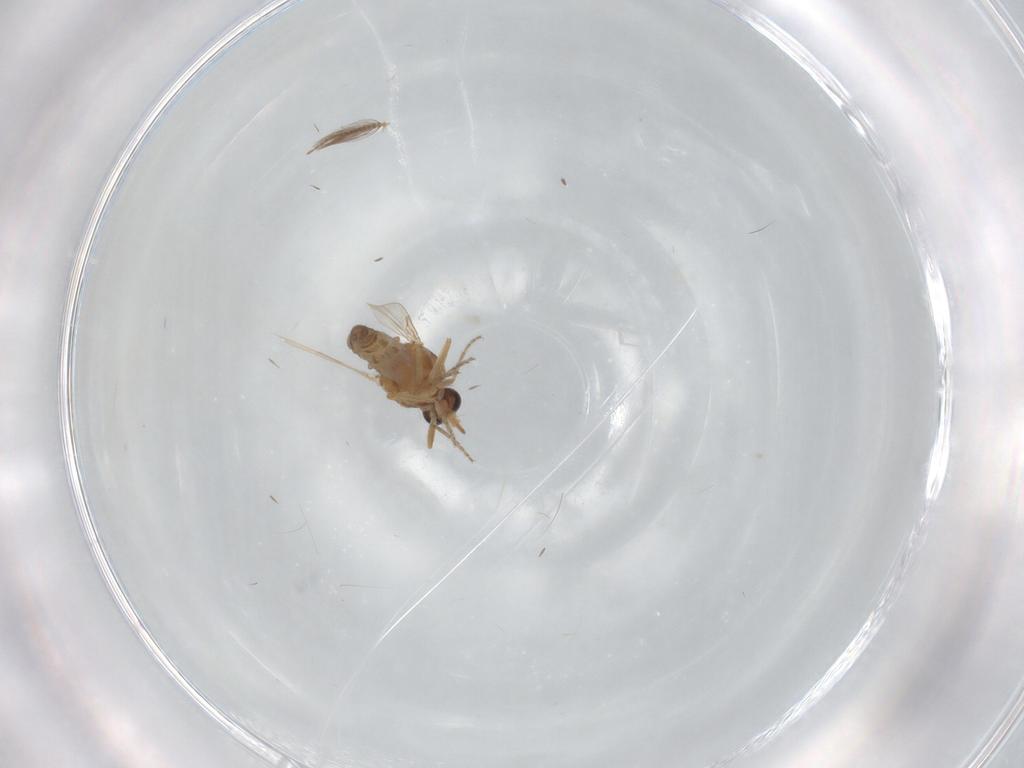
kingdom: Animalia
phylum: Arthropoda
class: Insecta
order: Diptera
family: Ceratopogonidae
